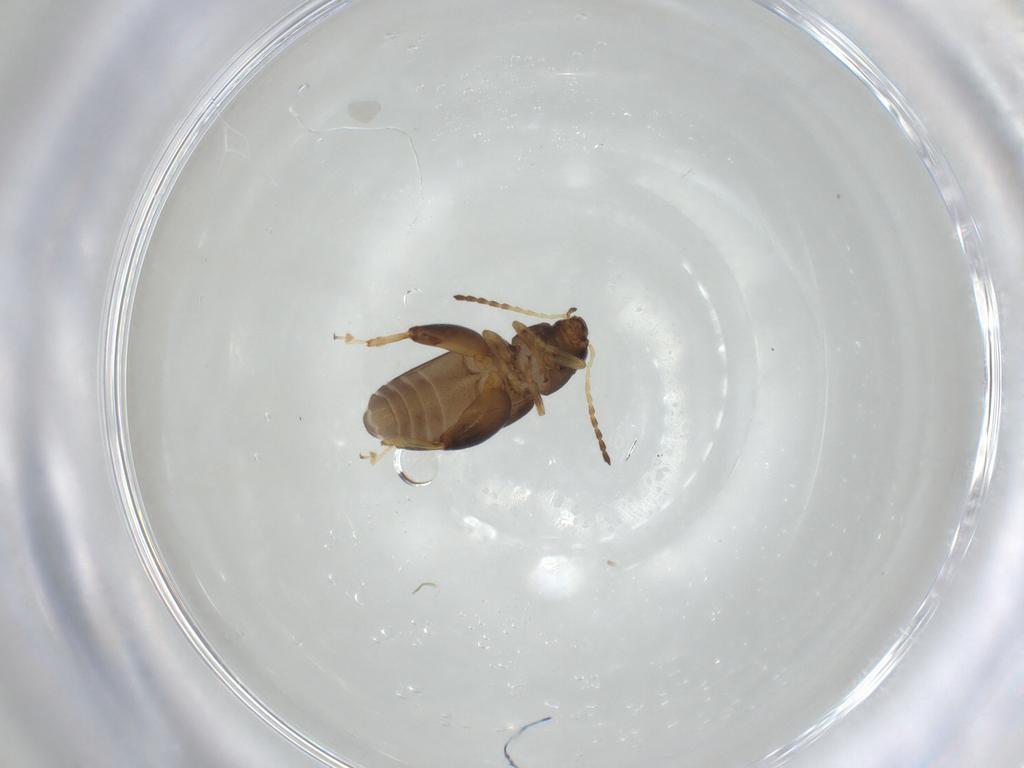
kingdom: Animalia
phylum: Arthropoda
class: Insecta
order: Coleoptera
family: Chrysomelidae
